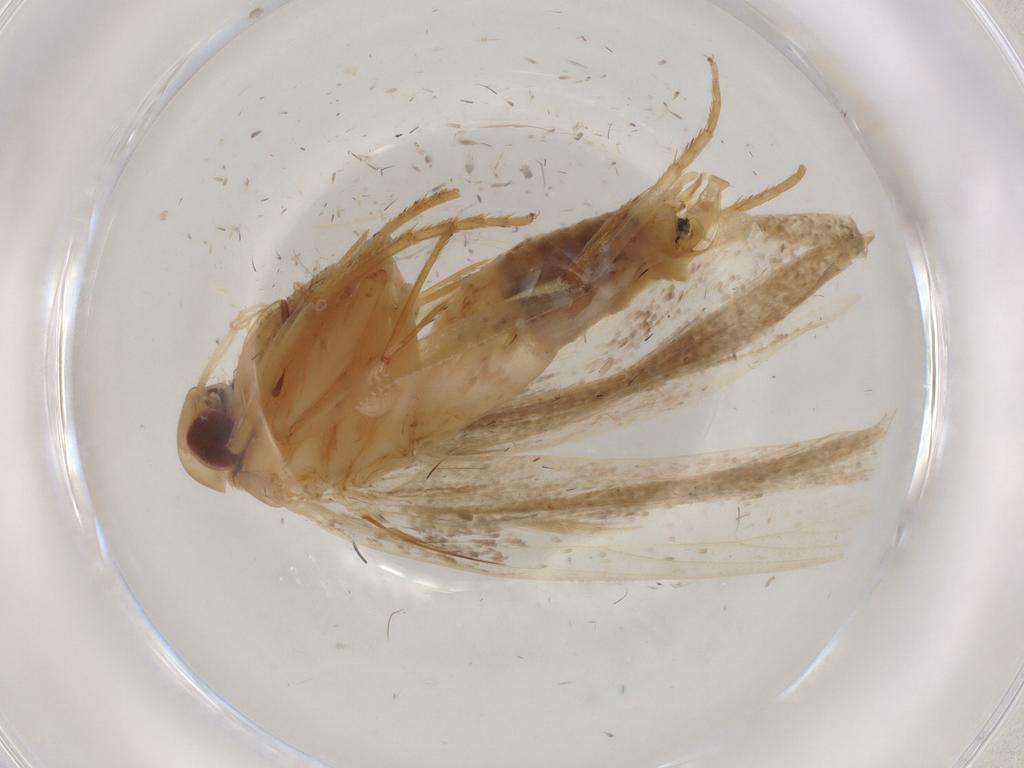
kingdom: Animalia
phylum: Arthropoda
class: Insecta
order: Lepidoptera
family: Gelechiidae
